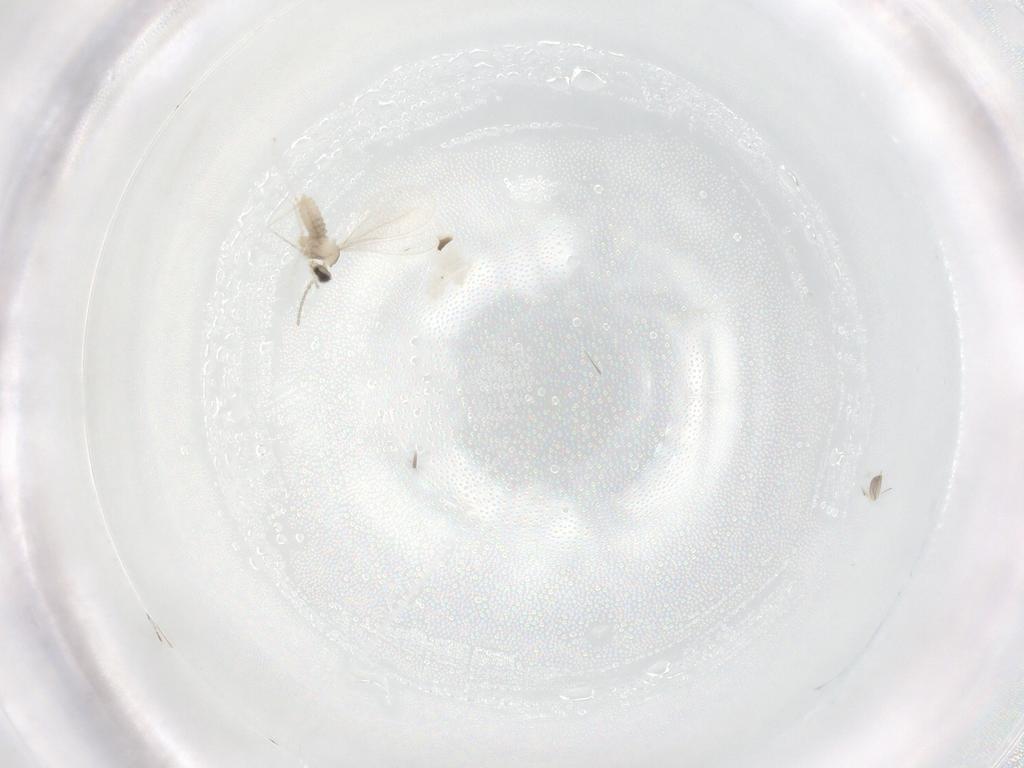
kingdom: Animalia
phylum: Arthropoda
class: Insecta
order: Diptera
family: Phoridae
